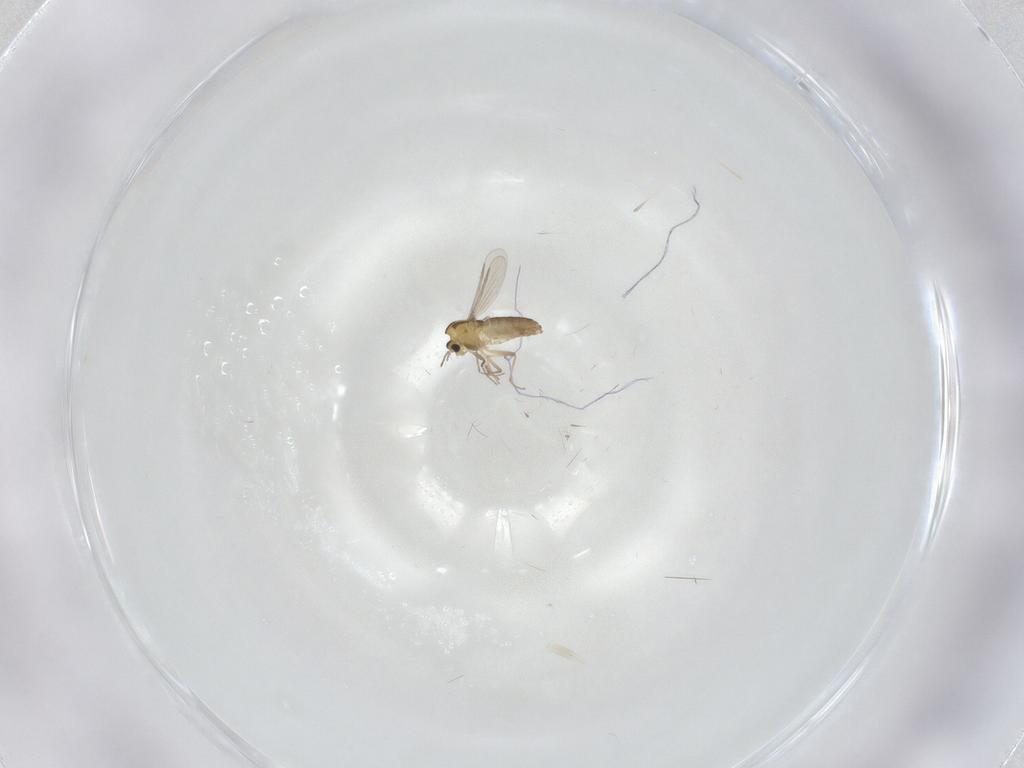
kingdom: Animalia
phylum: Arthropoda
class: Insecta
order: Diptera
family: Chironomidae
